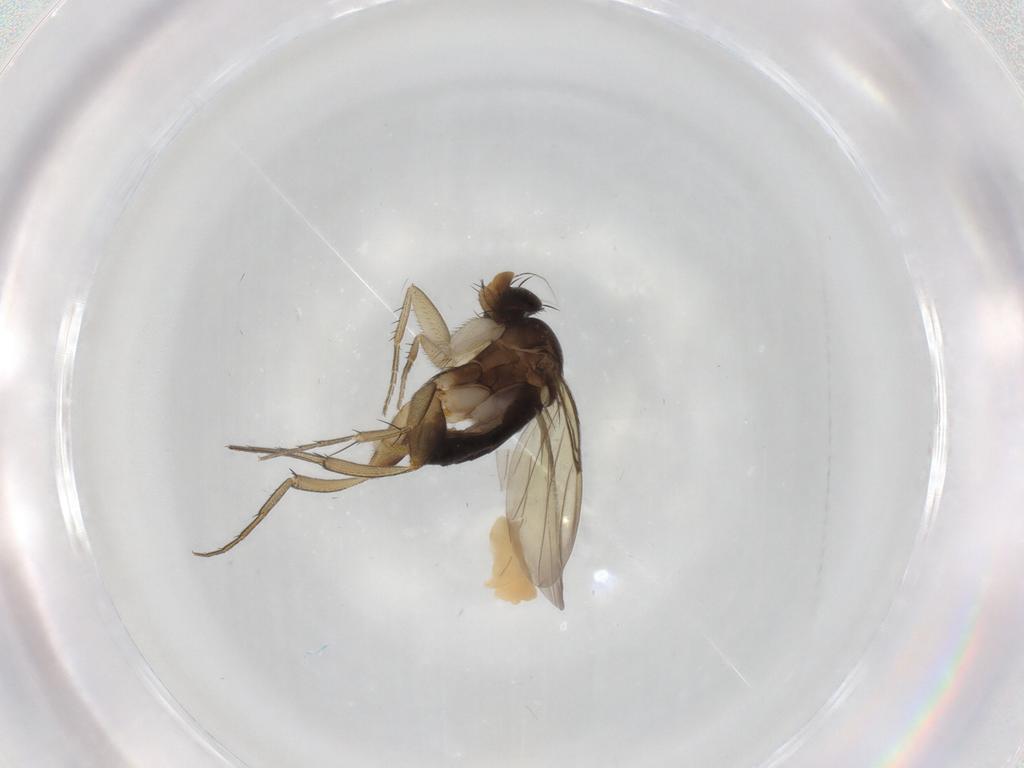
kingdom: Animalia
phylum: Arthropoda
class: Insecta
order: Diptera
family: Phoridae
